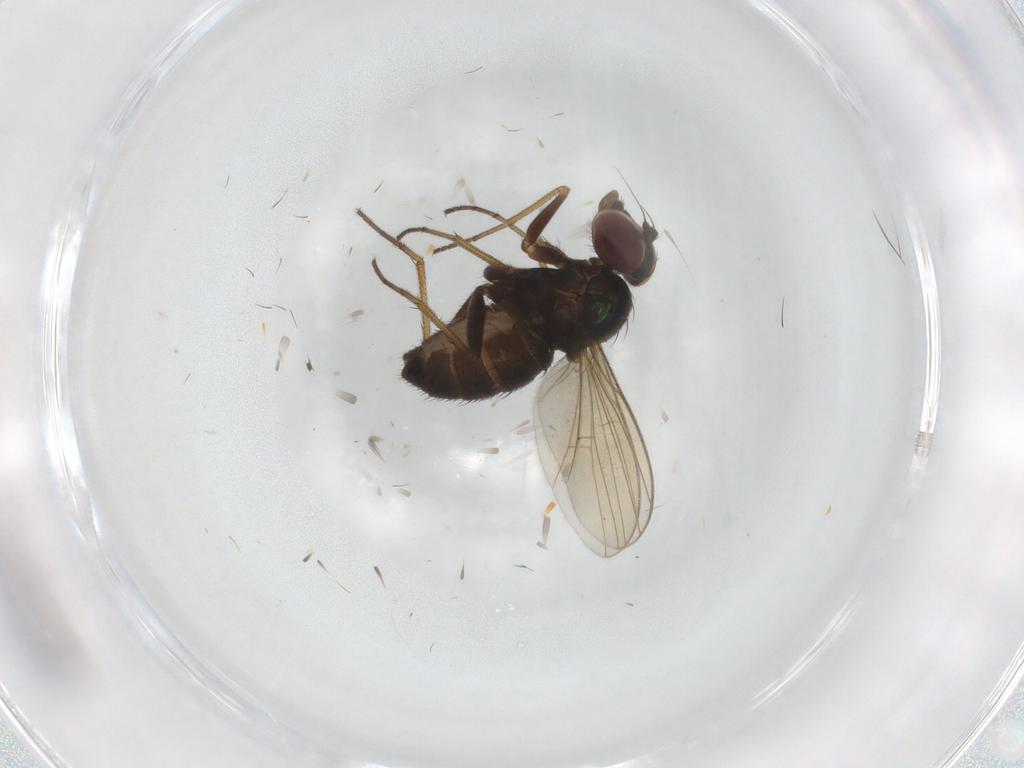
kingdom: Animalia
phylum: Arthropoda
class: Insecta
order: Diptera
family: Dolichopodidae
